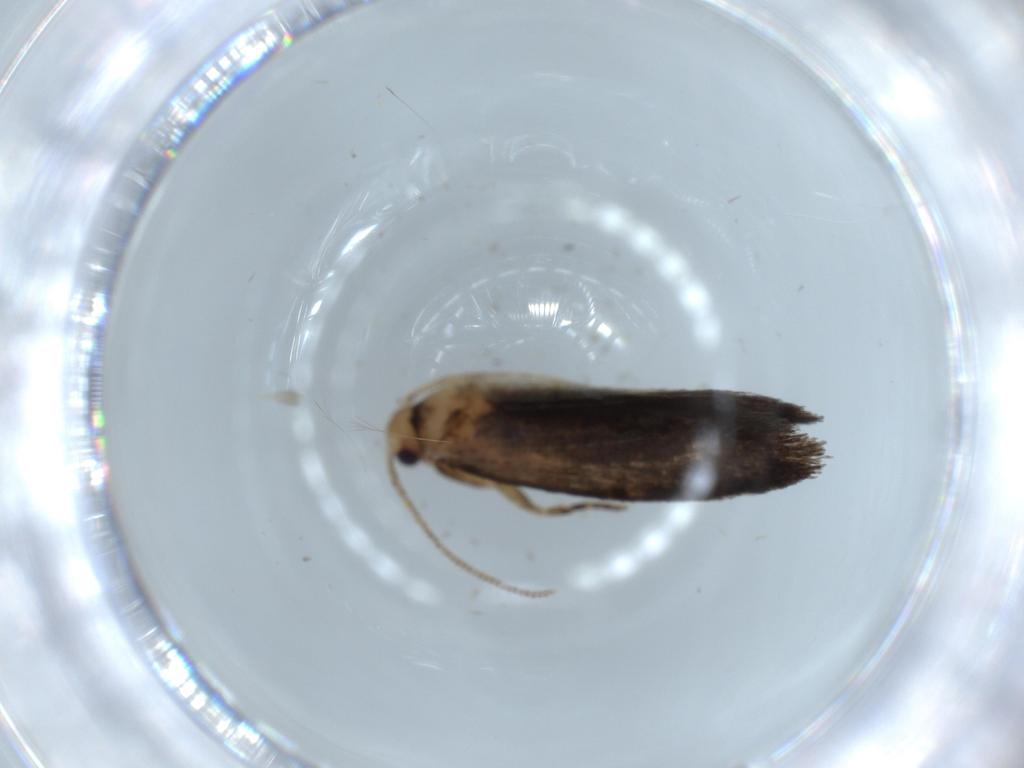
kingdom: Animalia
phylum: Arthropoda
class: Insecta
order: Lepidoptera
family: Tineidae
